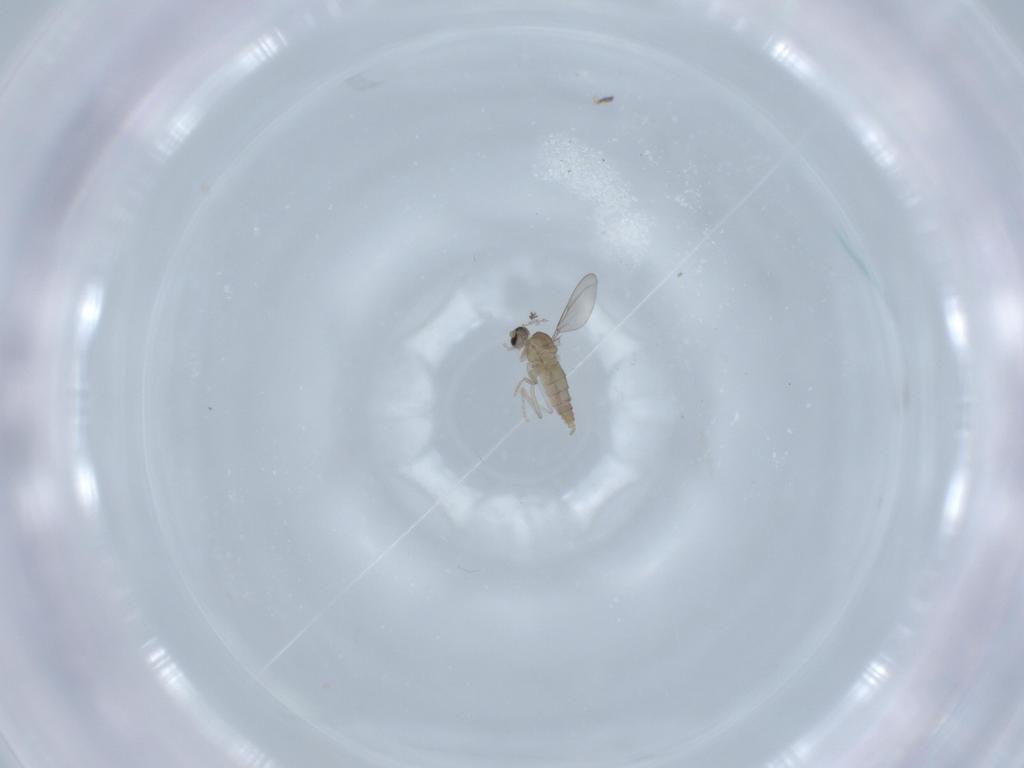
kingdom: Animalia
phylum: Arthropoda
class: Insecta
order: Diptera
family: Cecidomyiidae
